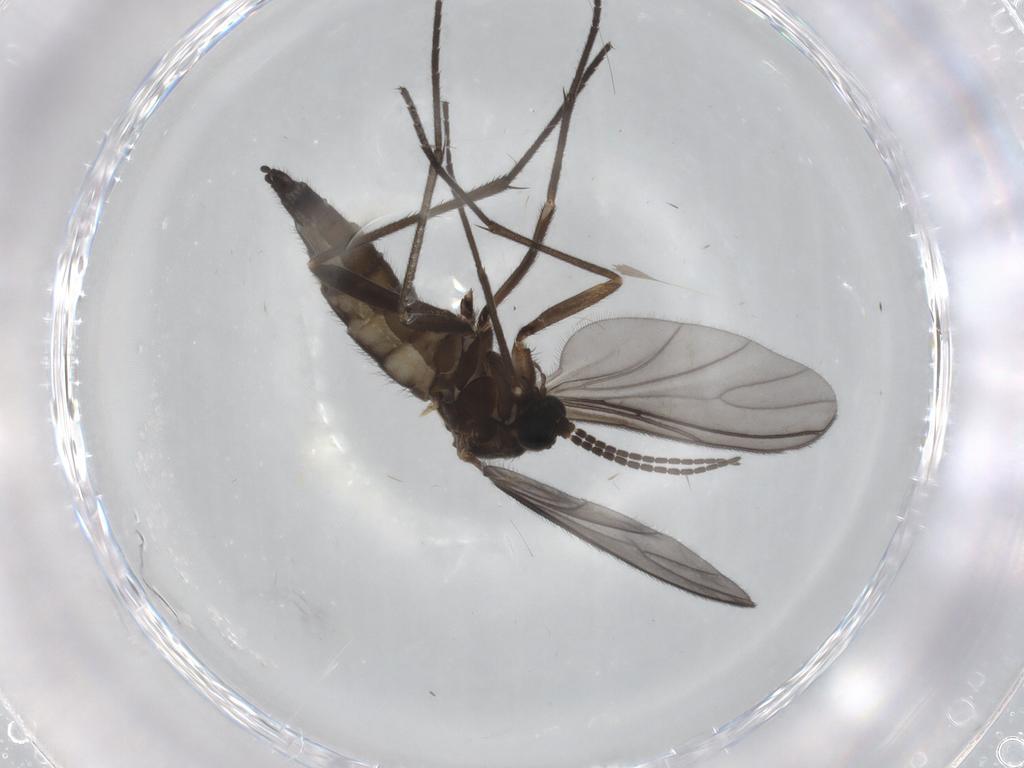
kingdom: Animalia
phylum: Arthropoda
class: Insecta
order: Diptera
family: Sciaridae
